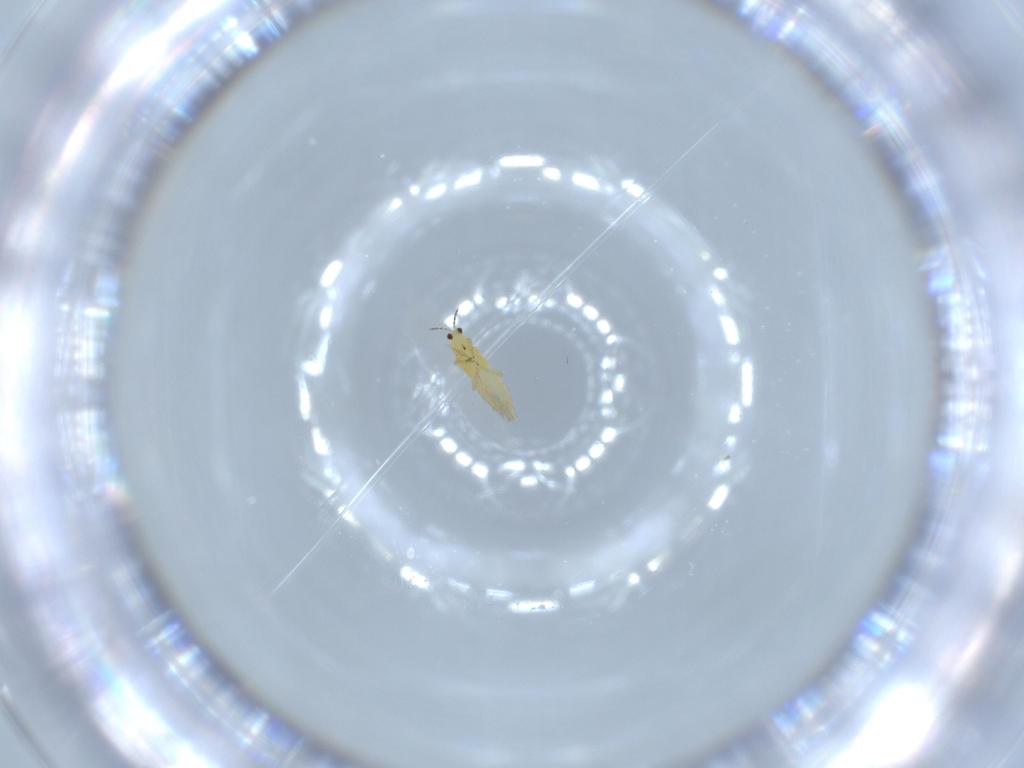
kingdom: Animalia
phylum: Arthropoda
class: Insecta
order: Thysanoptera
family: Thripidae
